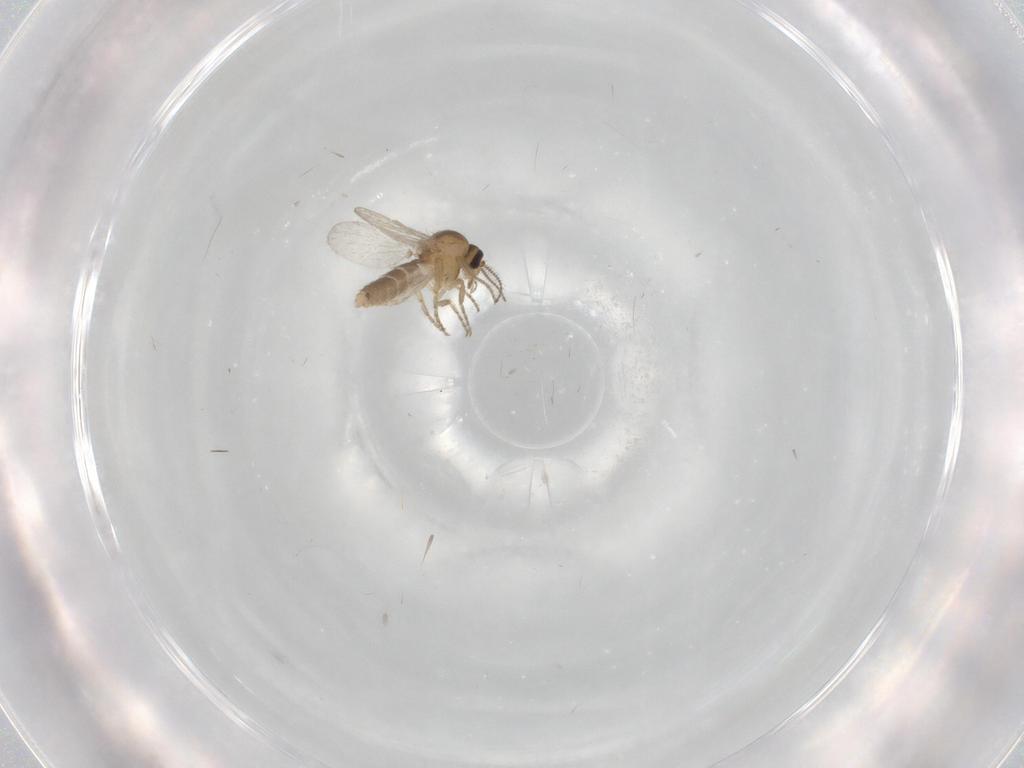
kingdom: Animalia
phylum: Arthropoda
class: Insecta
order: Diptera
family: Ceratopogonidae
